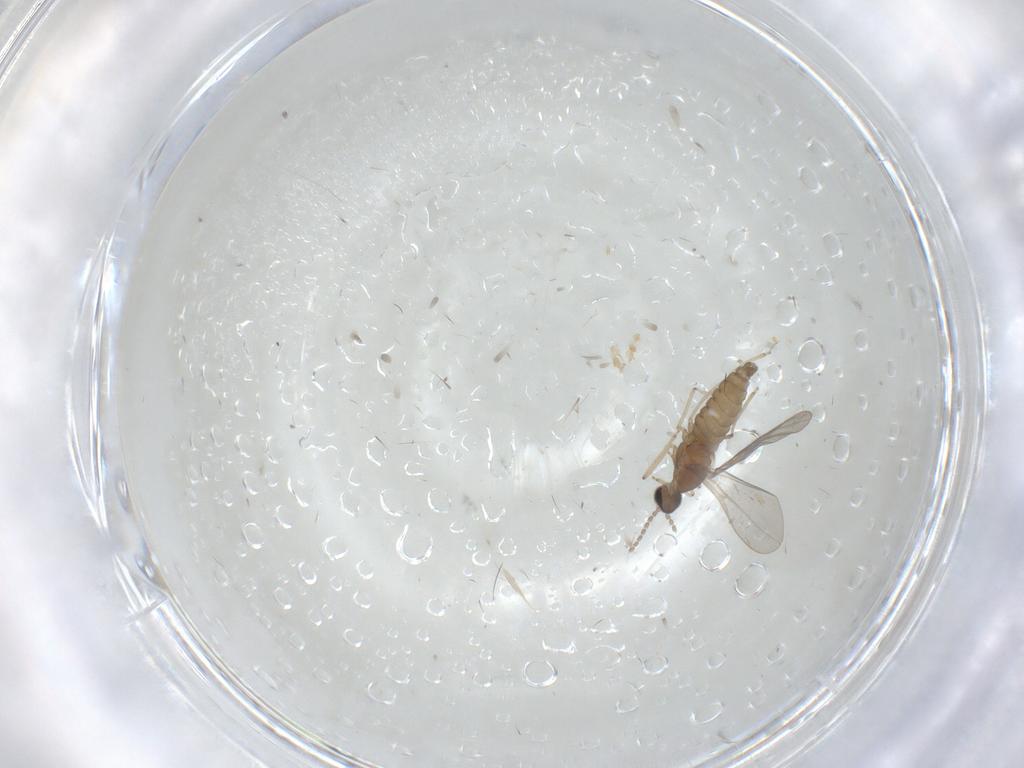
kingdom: Animalia
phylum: Arthropoda
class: Insecta
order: Diptera
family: Cecidomyiidae
